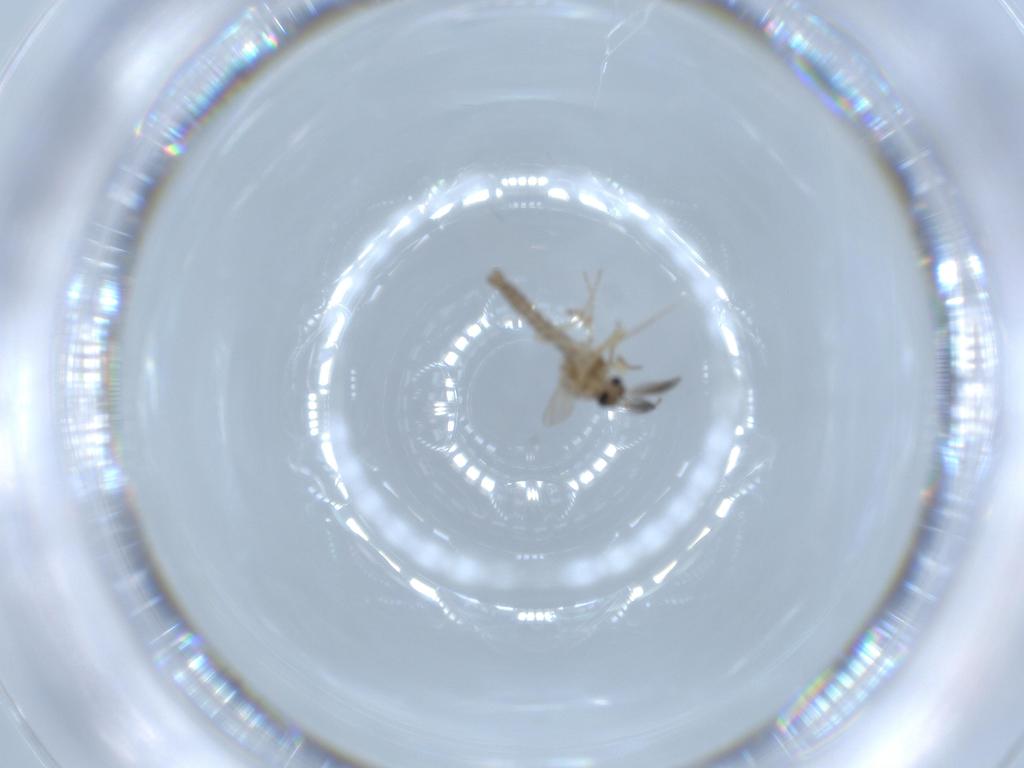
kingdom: Animalia
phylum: Arthropoda
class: Insecta
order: Diptera
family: Ceratopogonidae
